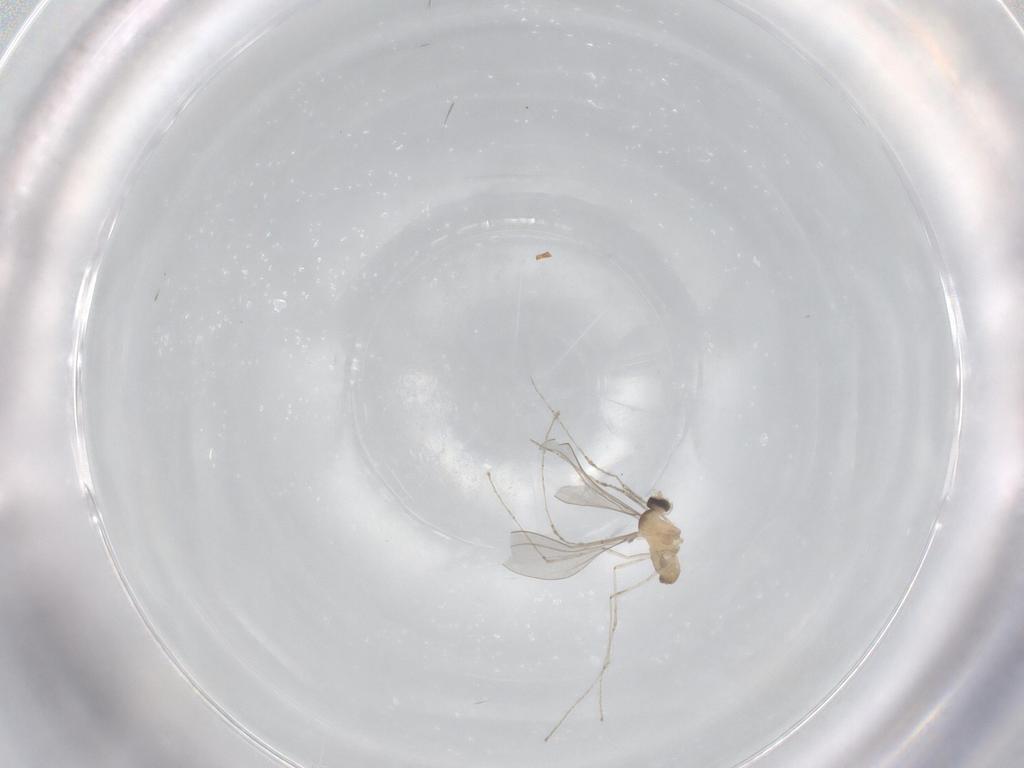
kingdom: Animalia
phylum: Arthropoda
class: Insecta
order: Diptera
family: Cecidomyiidae
